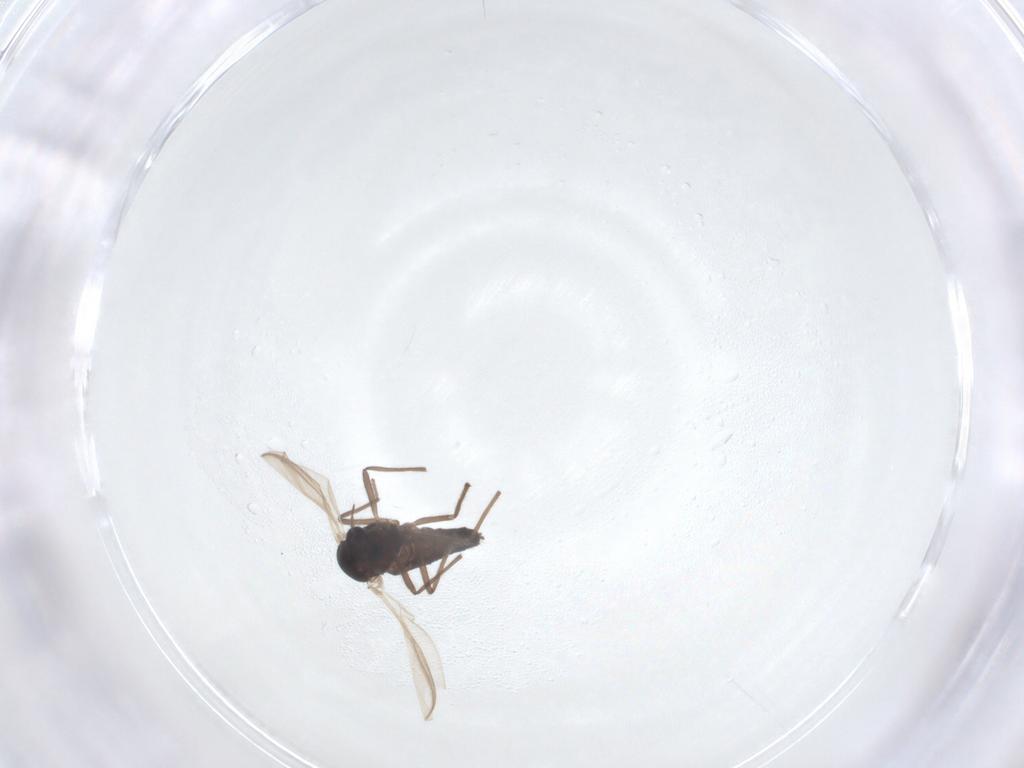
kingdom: Animalia
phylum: Arthropoda
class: Insecta
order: Diptera
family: Chironomidae
